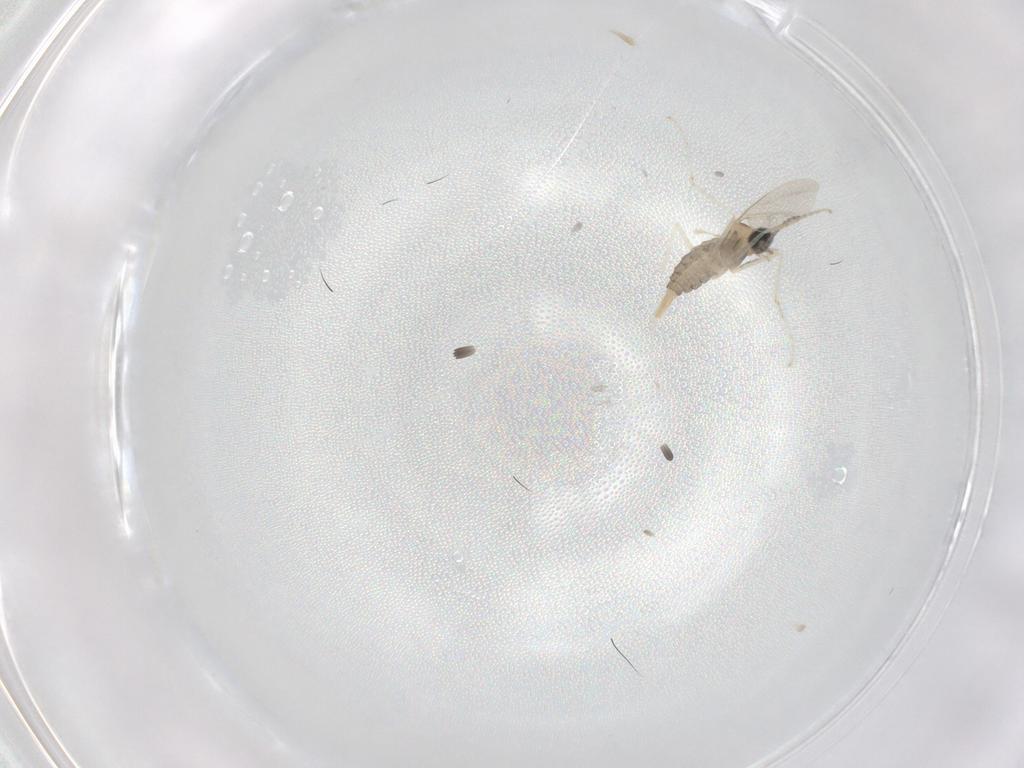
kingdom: Animalia
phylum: Arthropoda
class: Insecta
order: Diptera
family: Cecidomyiidae
